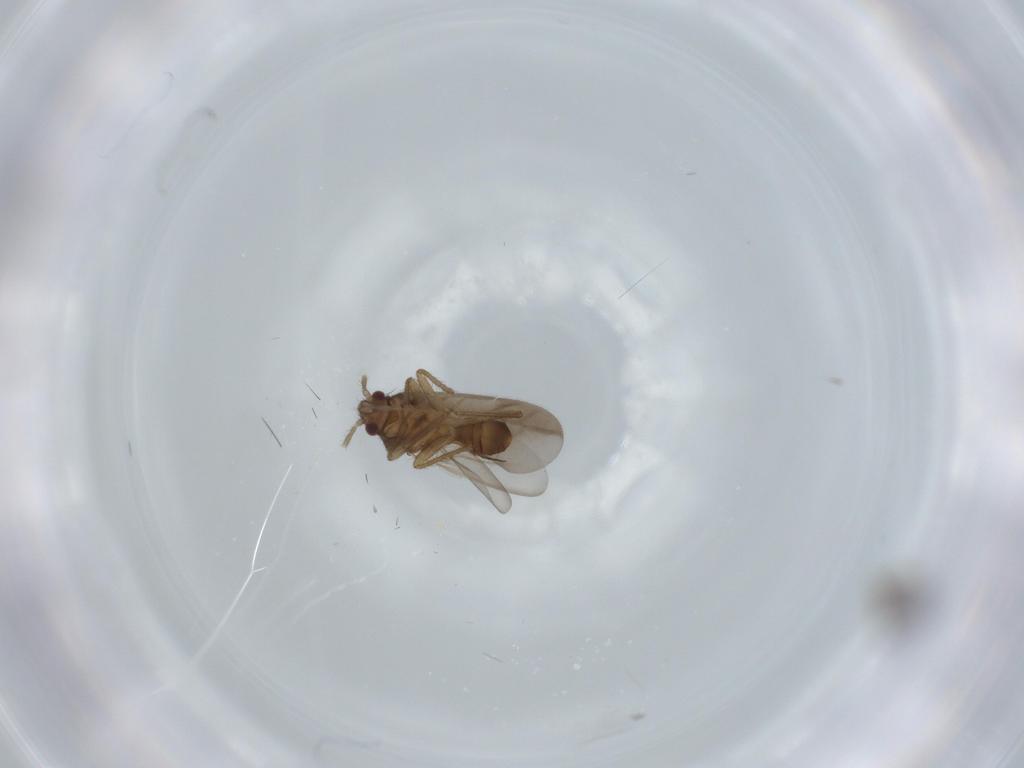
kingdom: Animalia
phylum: Arthropoda
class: Insecta
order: Hemiptera
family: Ceratocombidae
